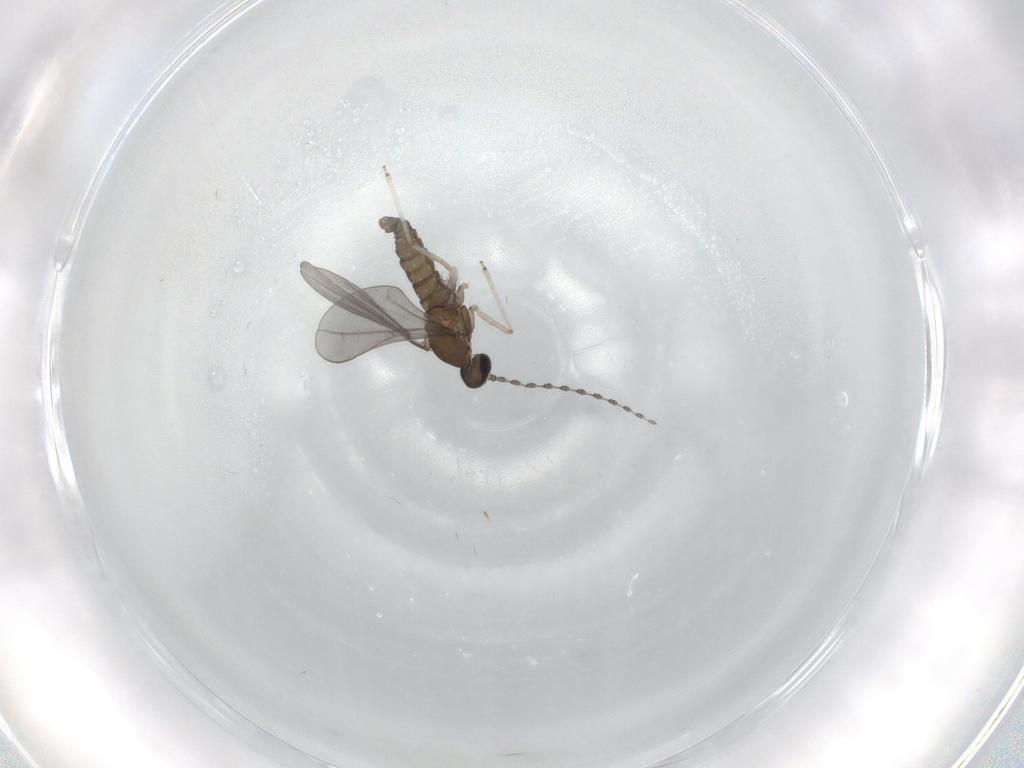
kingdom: Animalia
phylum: Arthropoda
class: Insecta
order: Diptera
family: Cecidomyiidae
